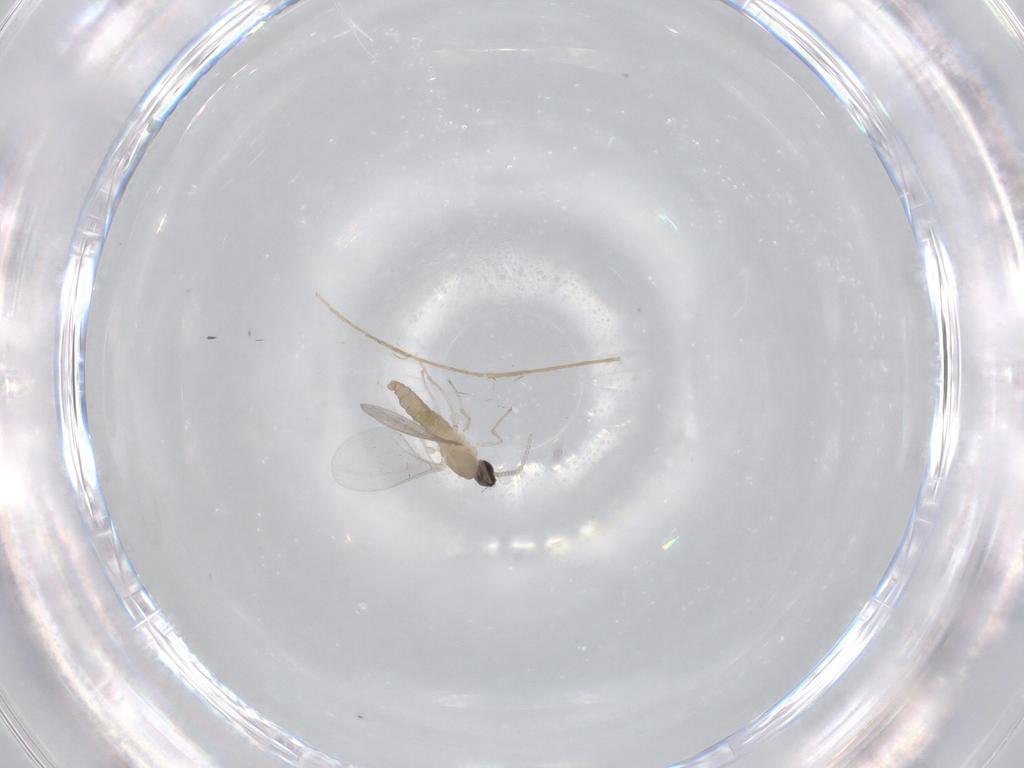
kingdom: Animalia
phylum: Arthropoda
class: Insecta
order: Diptera
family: Cecidomyiidae
